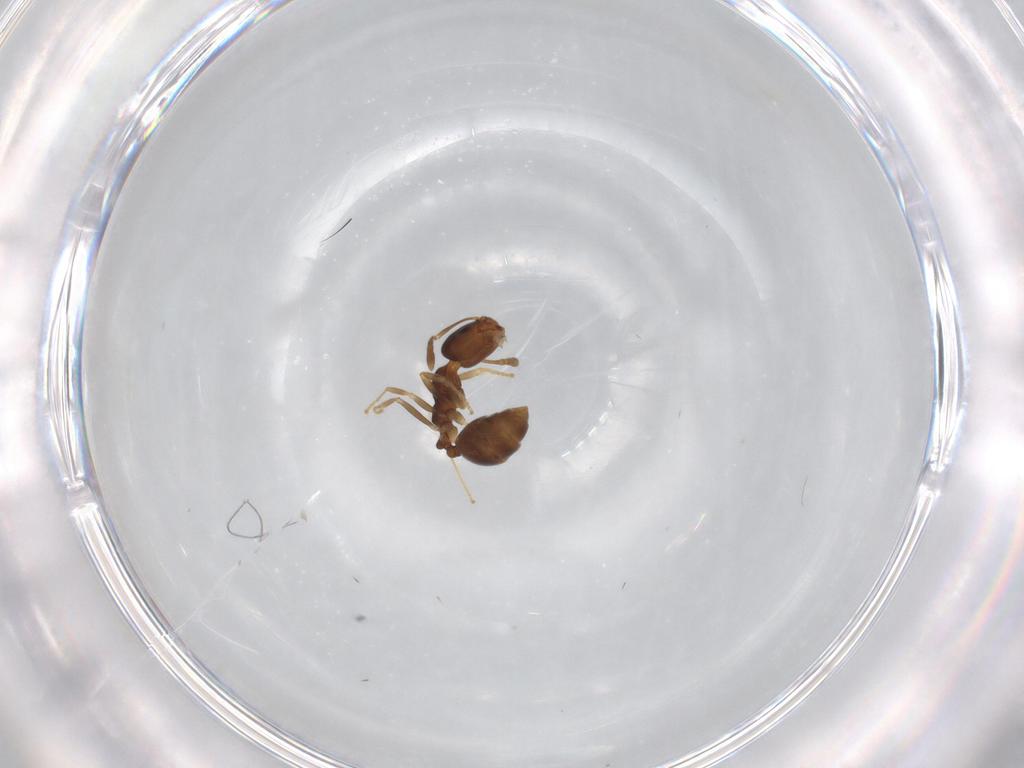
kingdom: Animalia
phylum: Arthropoda
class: Insecta
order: Hymenoptera
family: Formicidae
